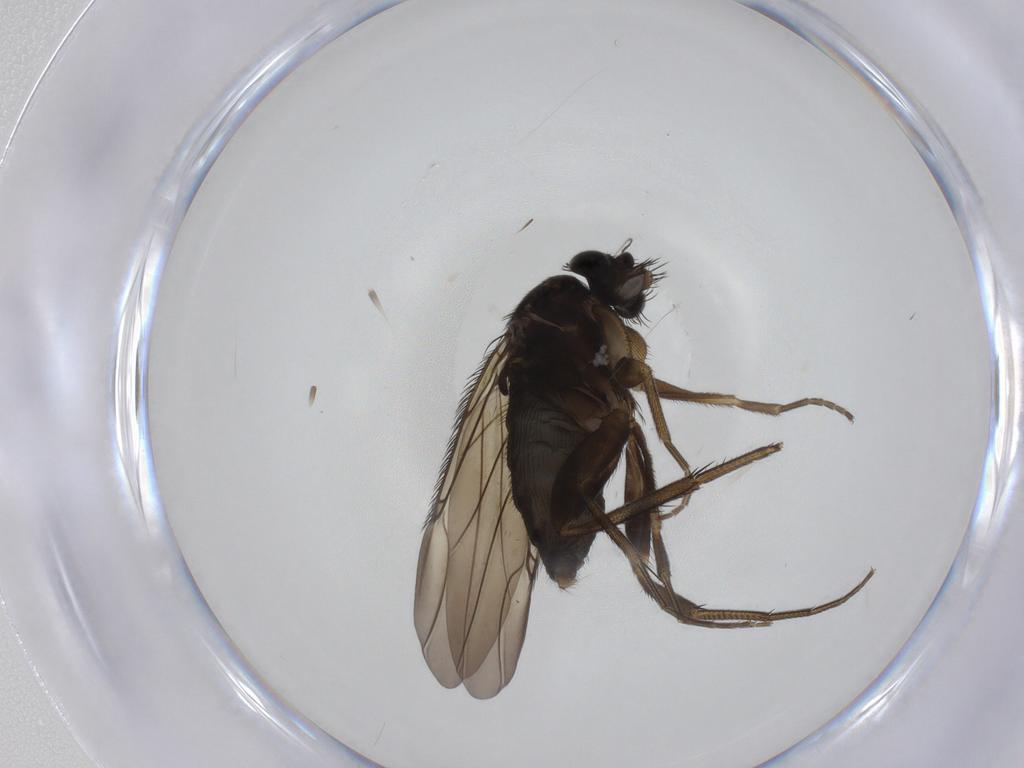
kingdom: Animalia
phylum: Arthropoda
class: Insecta
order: Diptera
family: Phoridae
